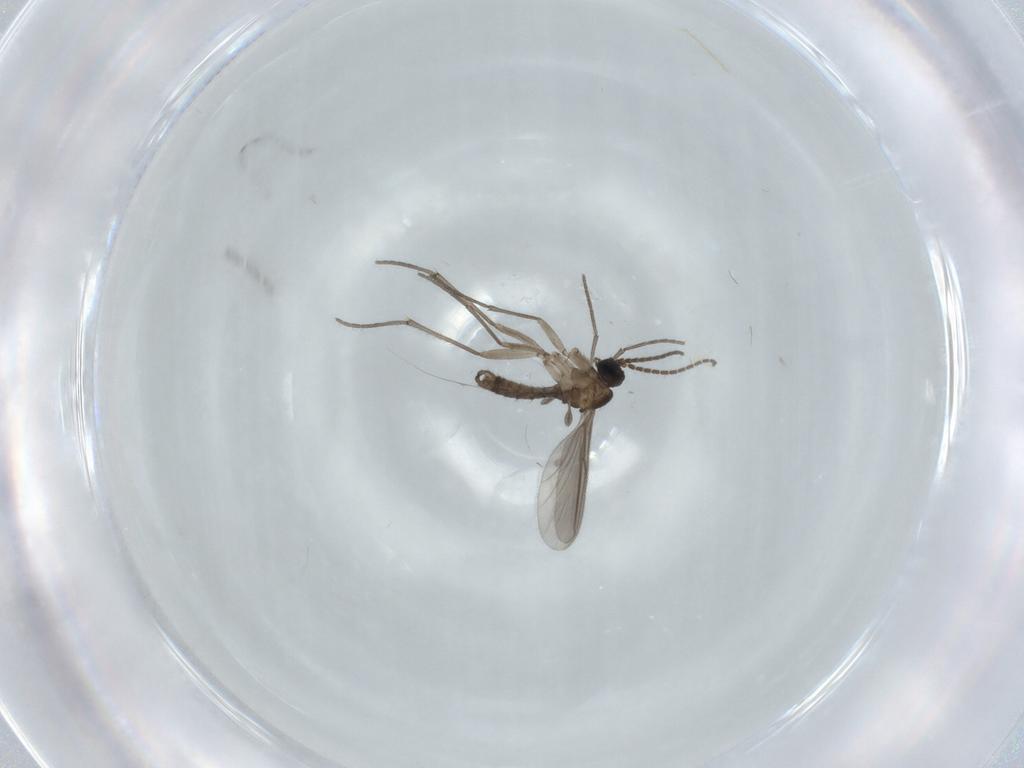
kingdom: Animalia
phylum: Arthropoda
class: Insecta
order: Diptera
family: Sciaridae
